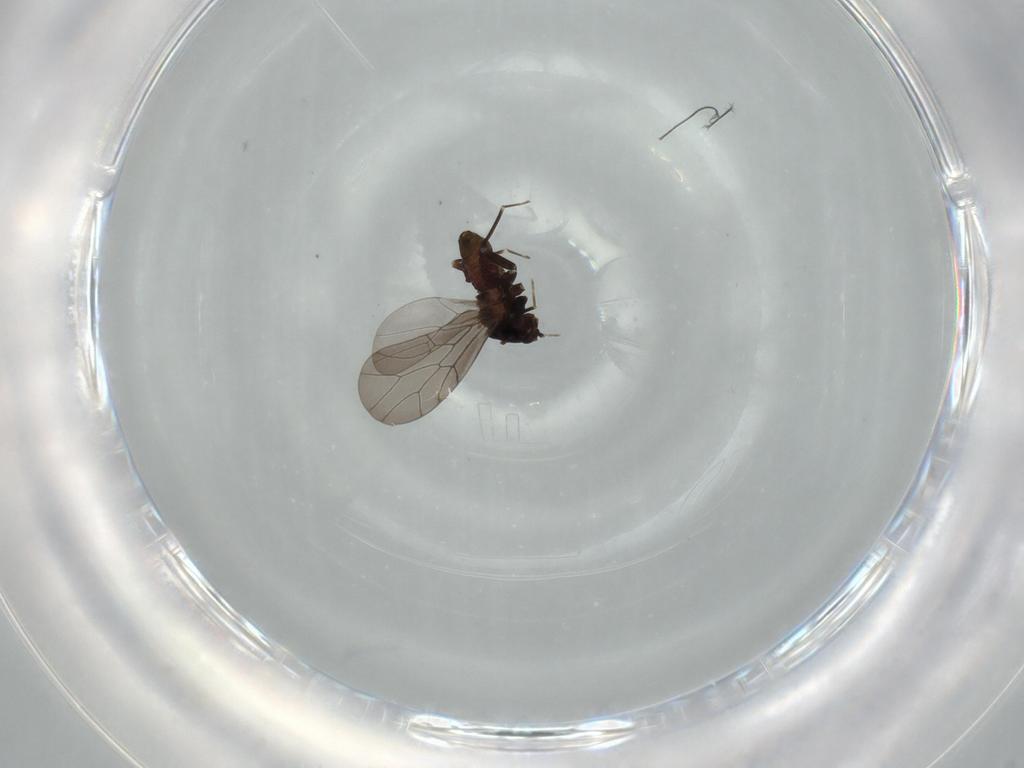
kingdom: Animalia
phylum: Arthropoda
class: Insecta
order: Psocodea
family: Lepidopsocidae
